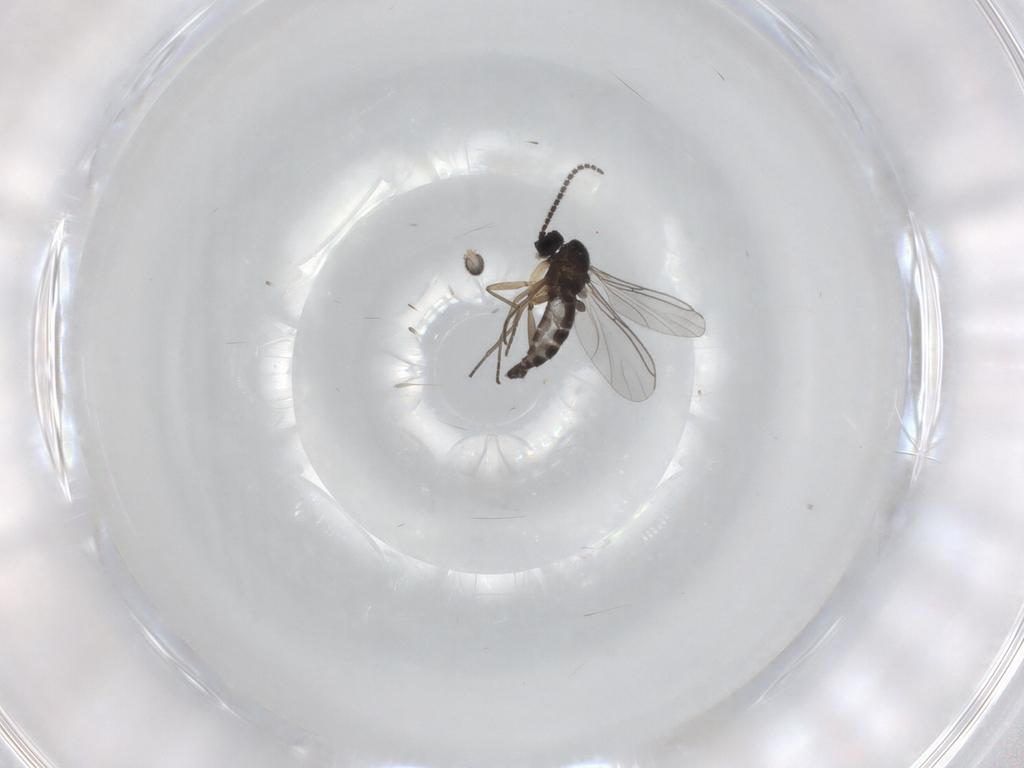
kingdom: Animalia
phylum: Arthropoda
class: Insecta
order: Diptera
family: Sciaridae
